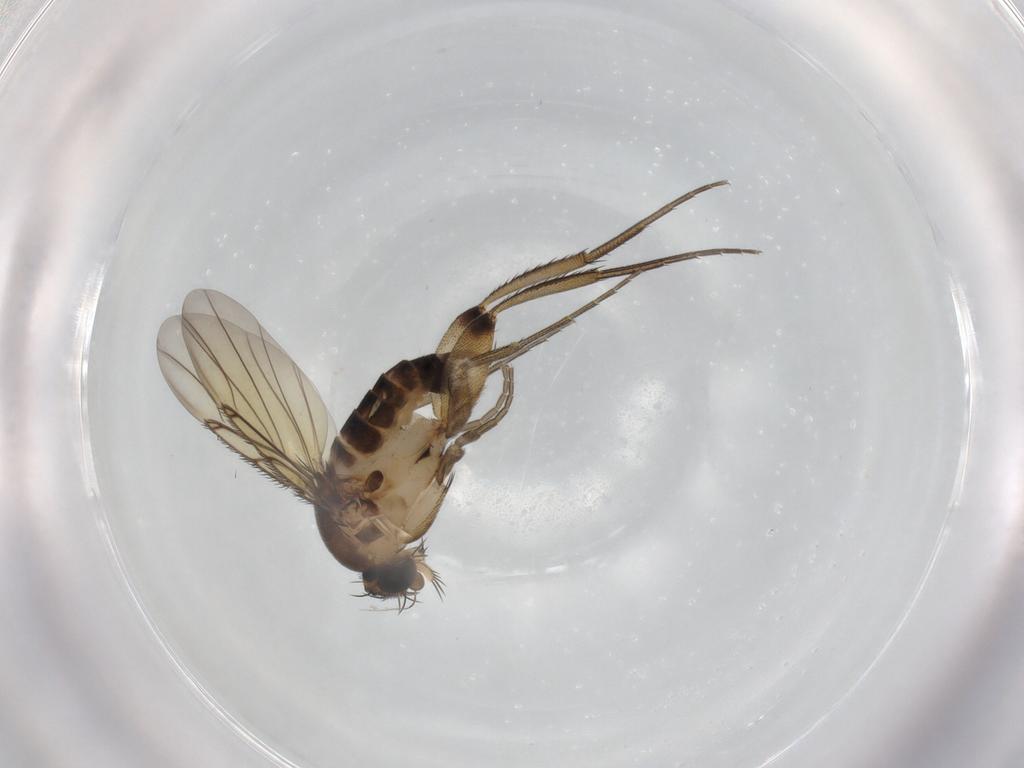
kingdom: Animalia
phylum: Arthropoda
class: Insecta
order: Diptera
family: Phoridae
